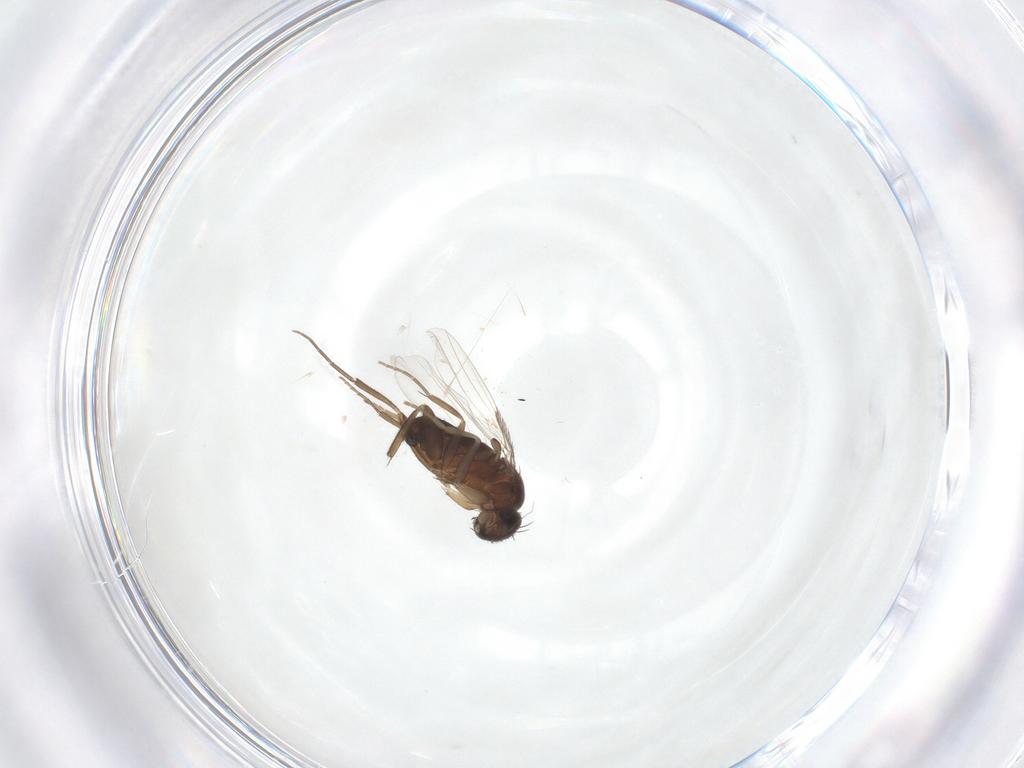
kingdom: Animalia
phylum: Arthropoda
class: Insecta
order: Diptera
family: Phoridae
